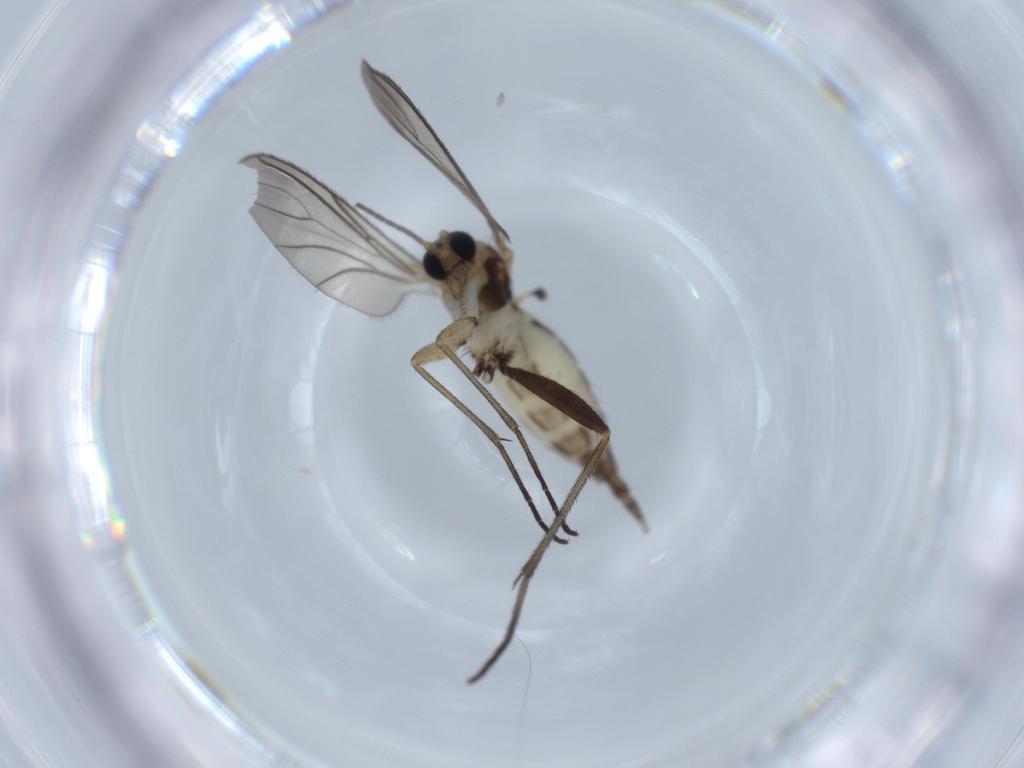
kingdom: Animalia
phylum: Arthropoda
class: Insecta
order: Diptera
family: Sciaridae
